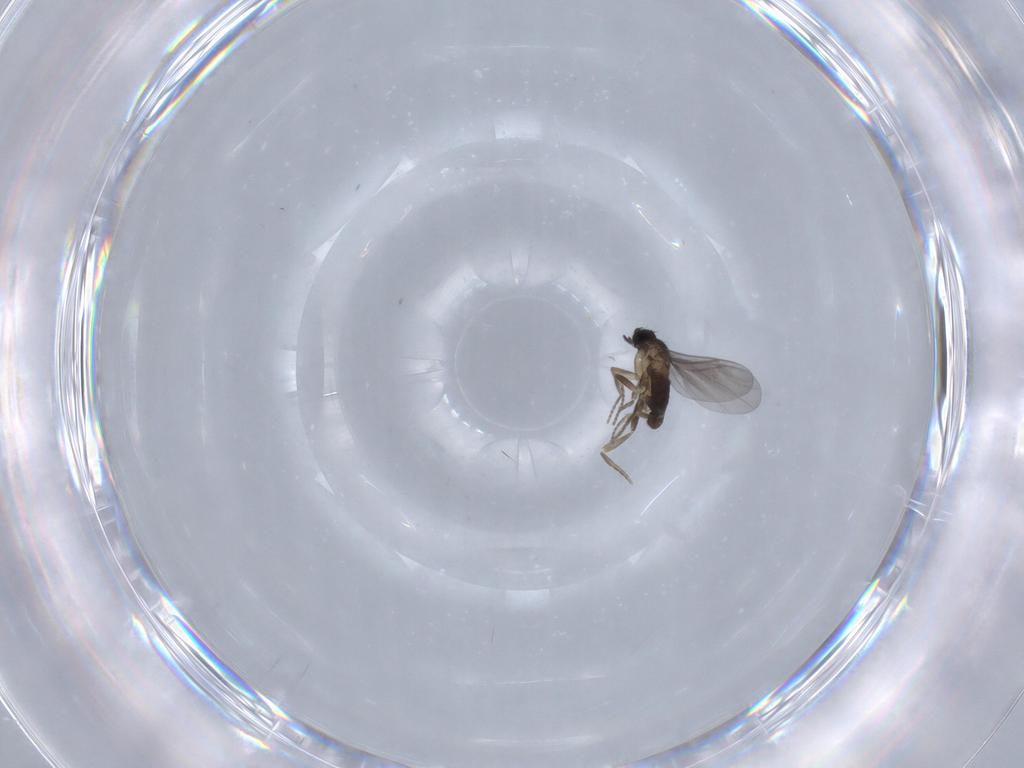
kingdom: Animalia
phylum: Arthropoda
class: Insecta
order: Diptera
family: Chironomidae
